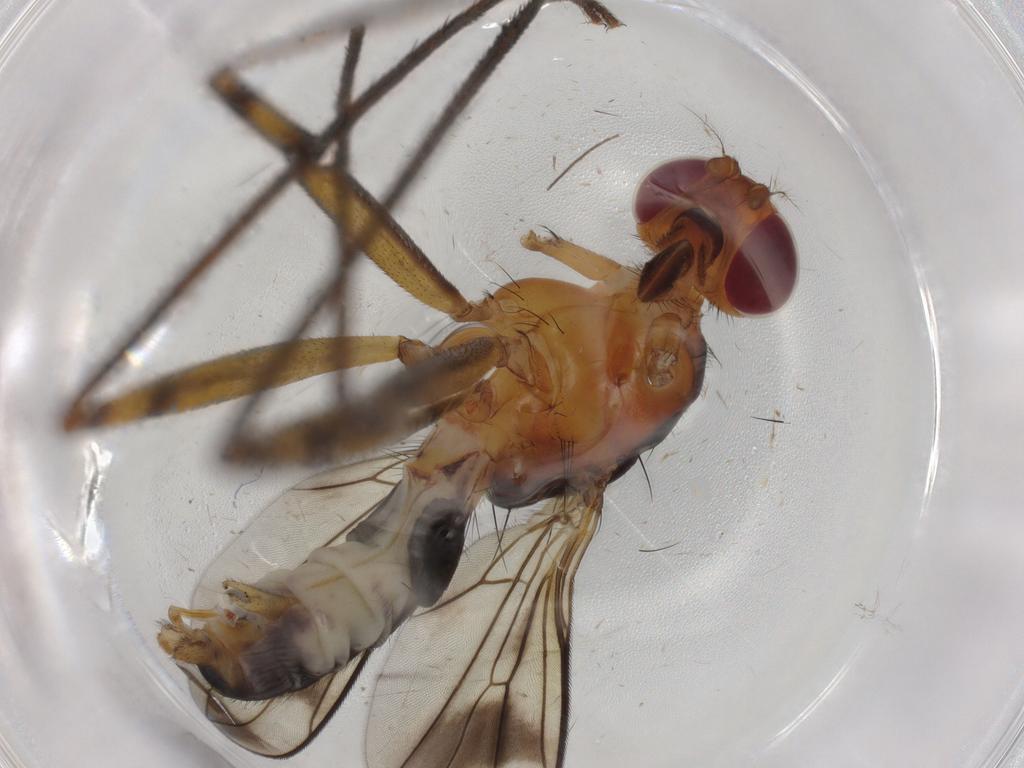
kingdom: Animalia
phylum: Arthropoda
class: Insecta
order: Diptera
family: Dolichopodidae
